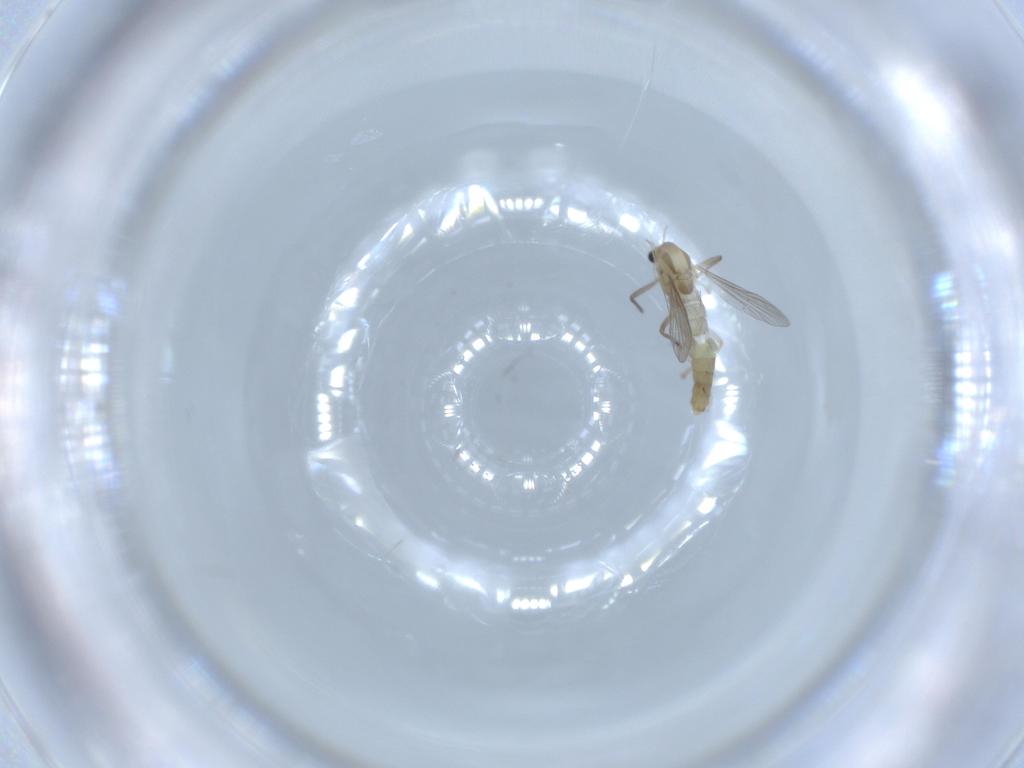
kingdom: Animalia
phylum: Arthropoda
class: Insecta
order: Diptera
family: Chironomidae
